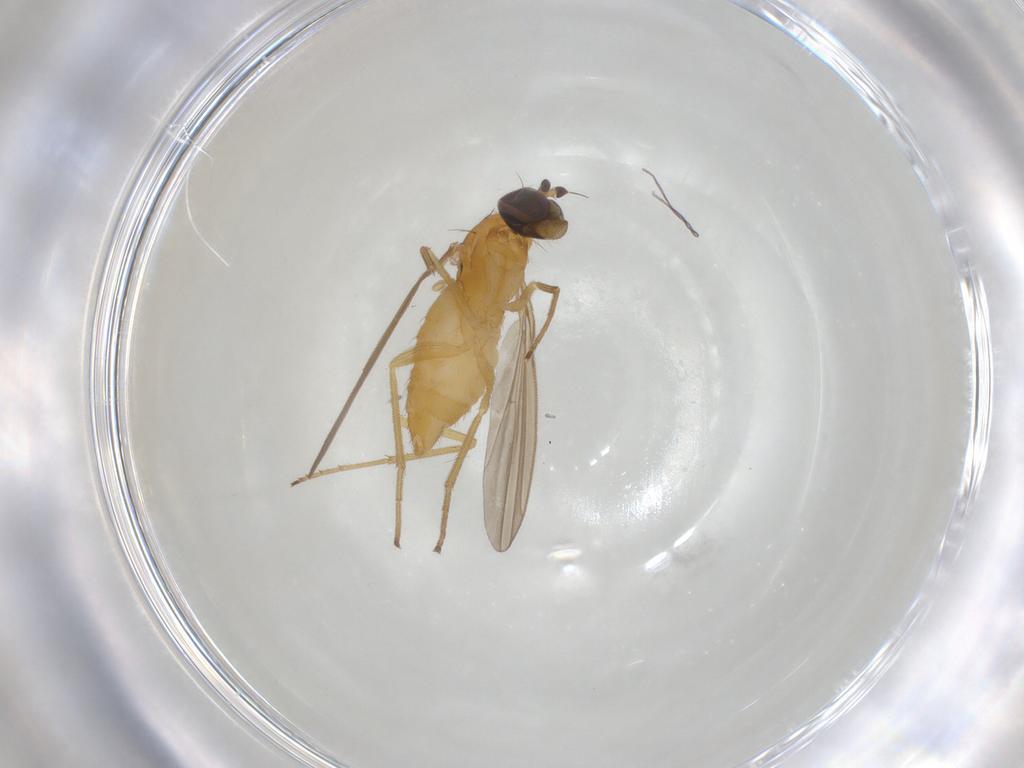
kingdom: Animalia
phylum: Arthropoda
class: Insecta
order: Diptera
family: Dolichopodidae
